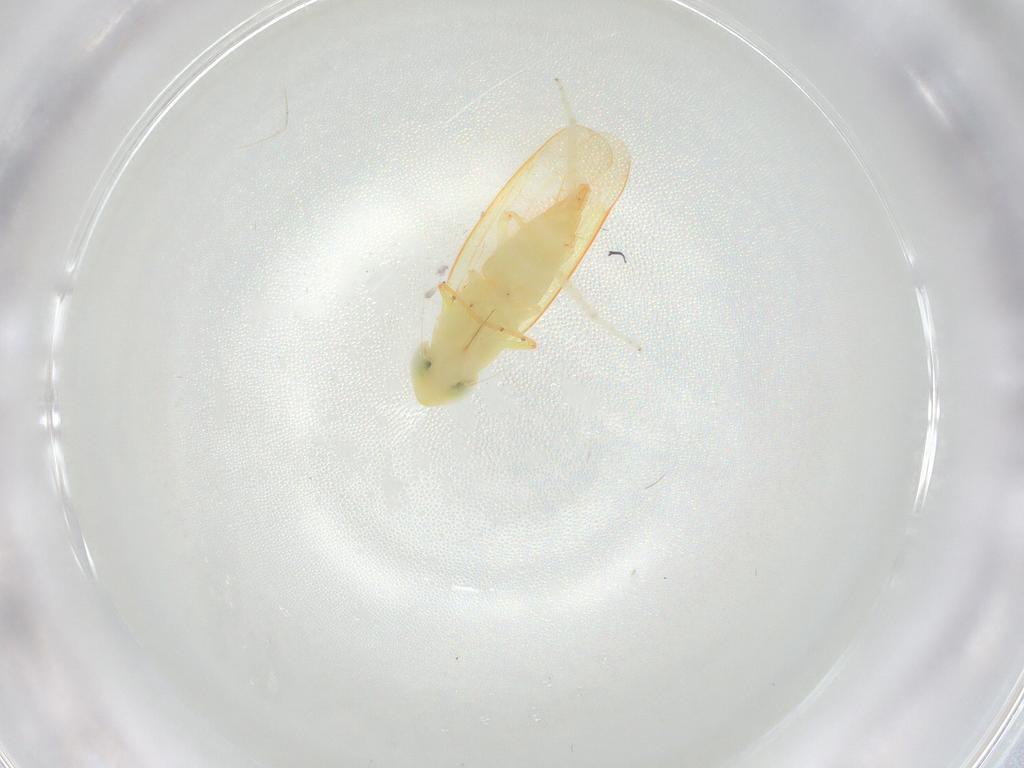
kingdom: Animalia
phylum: Arthropoda
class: Insecta
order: Hemiptera
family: Cicadellidae
